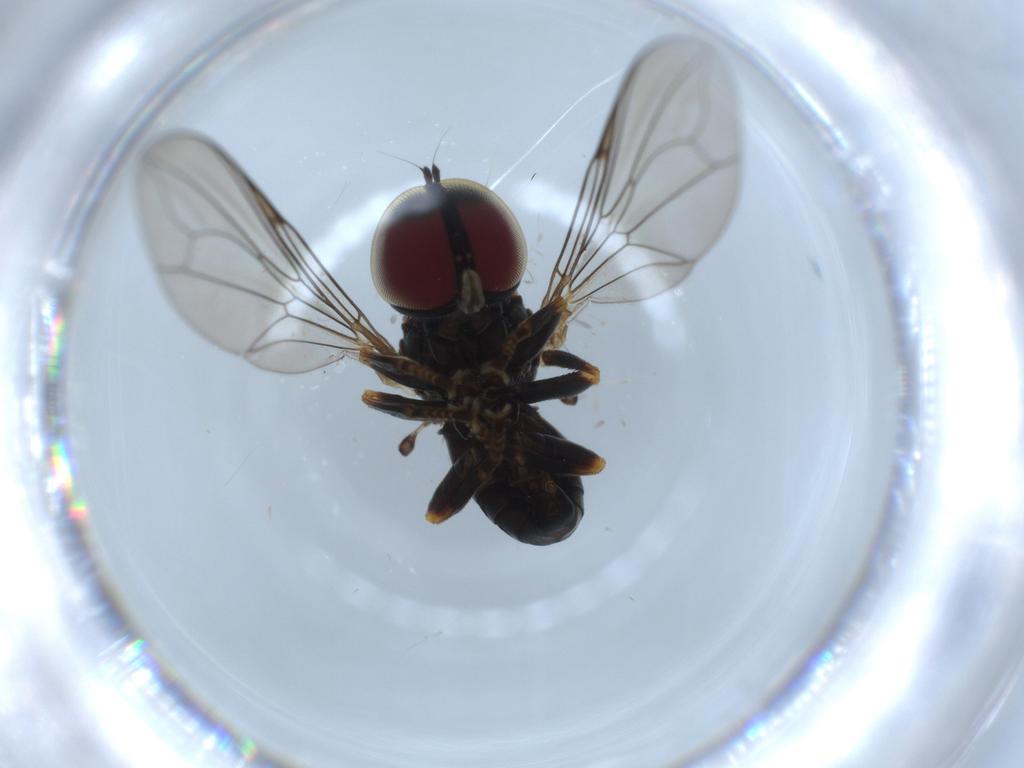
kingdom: Animalia
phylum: Arthropoda
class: Insecta
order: Diptera
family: Pipunculidae
